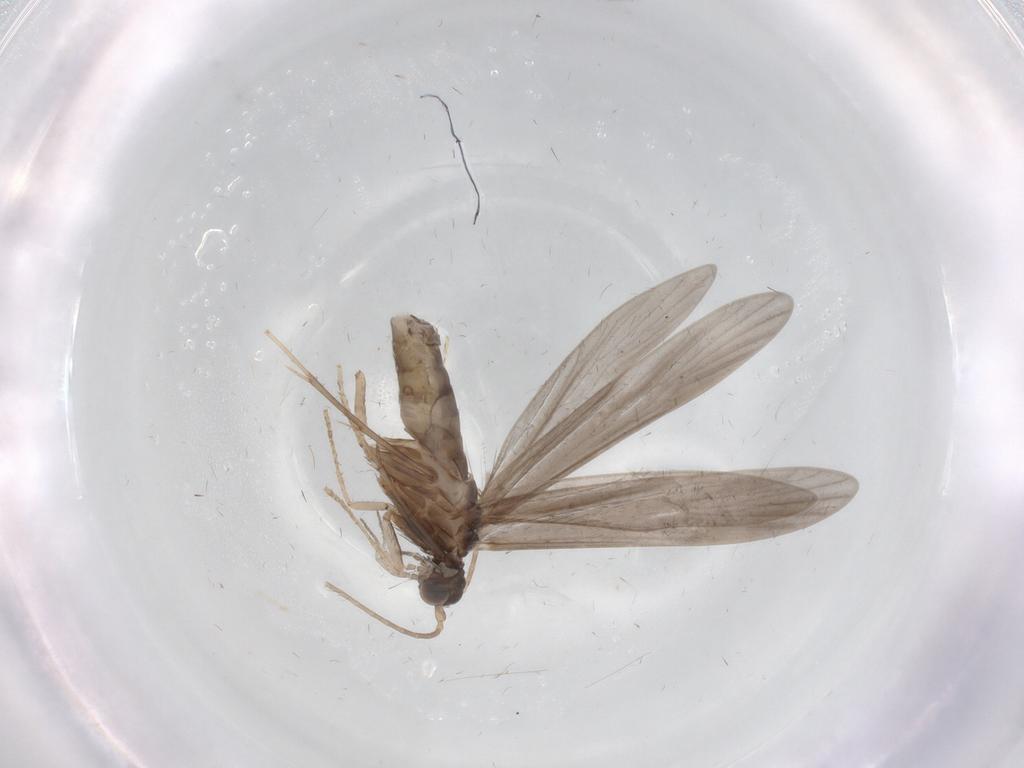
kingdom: Animalia
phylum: Arthropoda
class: Insecta
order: Trichoptera
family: Xiphocentronidae
